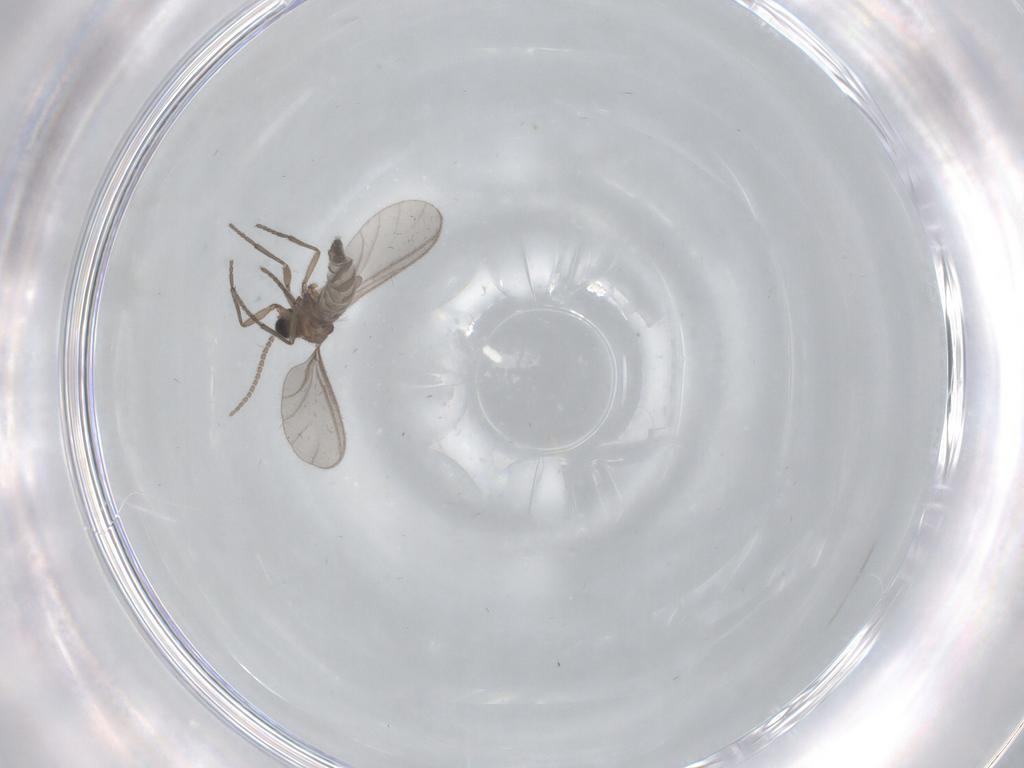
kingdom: Animalia
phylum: Arthropoda
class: Insecta
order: Diptera
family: Sciaridae
